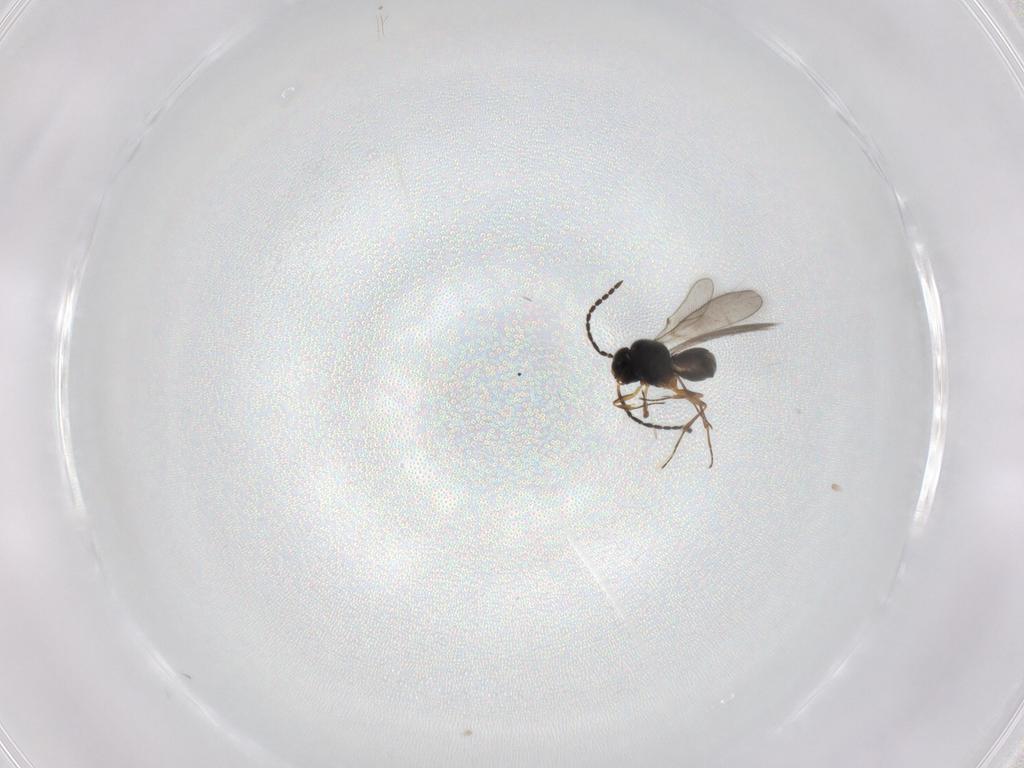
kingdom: Animalia
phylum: Arthropoda
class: Insecta
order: Hymenoptera
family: Scelionidae
